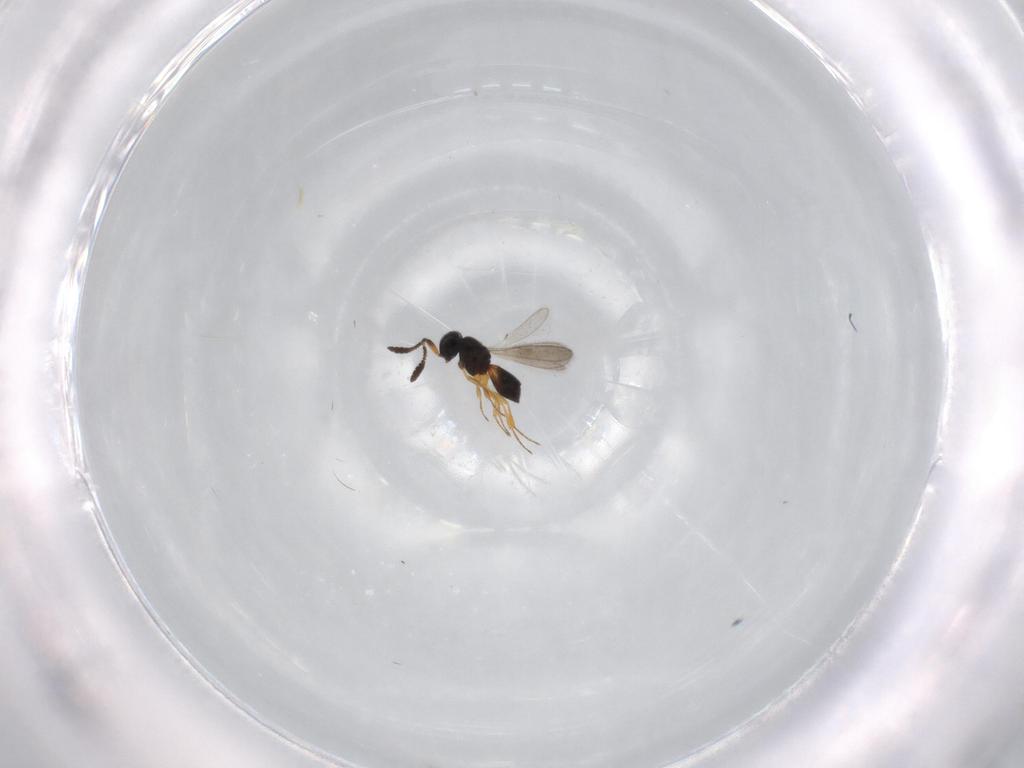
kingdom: Animalia
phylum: Arthropoda
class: Insecta
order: Hymenoptera
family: Scelionidae
